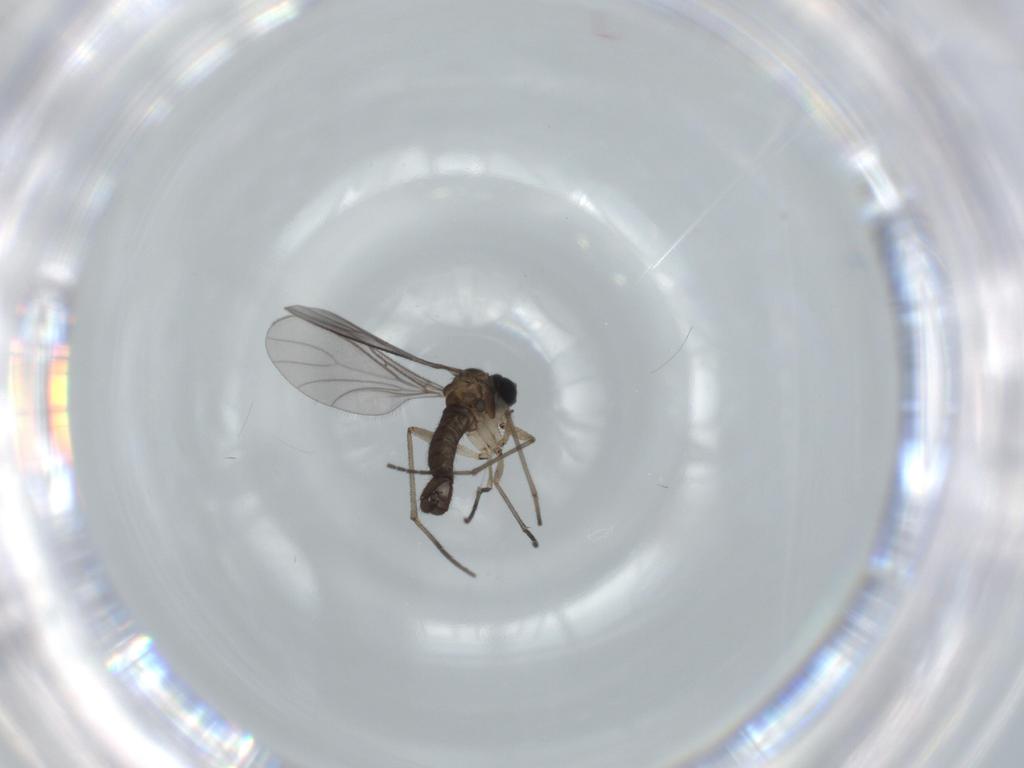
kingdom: Animalia
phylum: Arthropoda
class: Insecta
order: Diptera
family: Sciaridae
